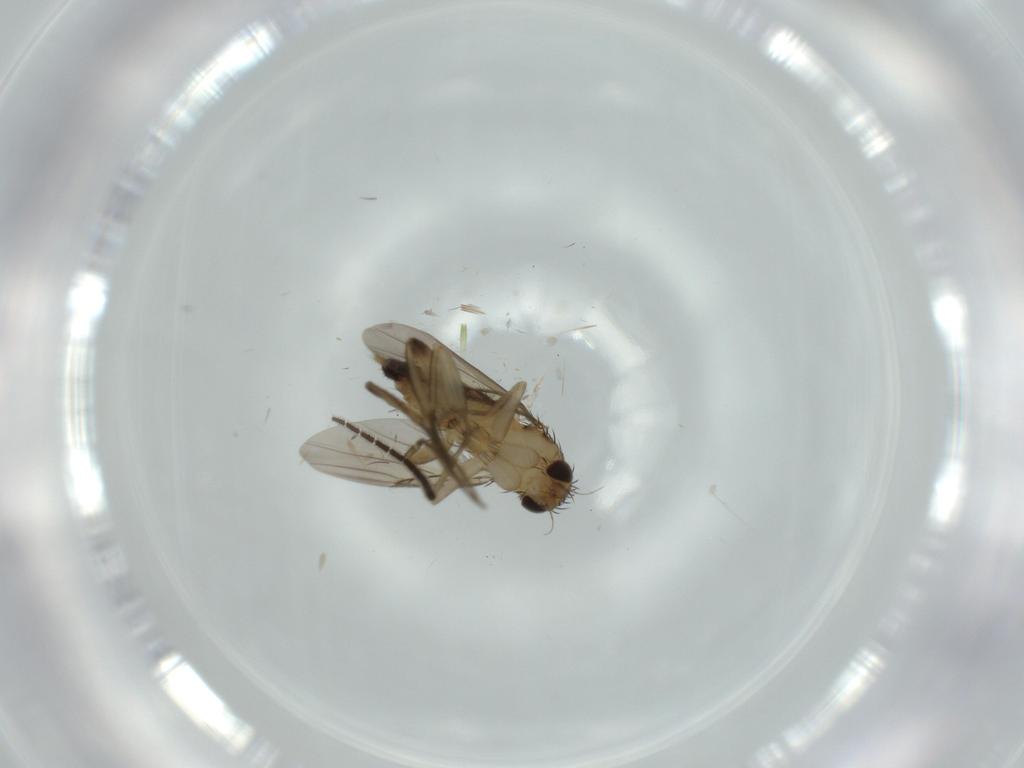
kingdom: Animalia
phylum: Arthropoda
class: Insecta
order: Diptera
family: Phoridae
